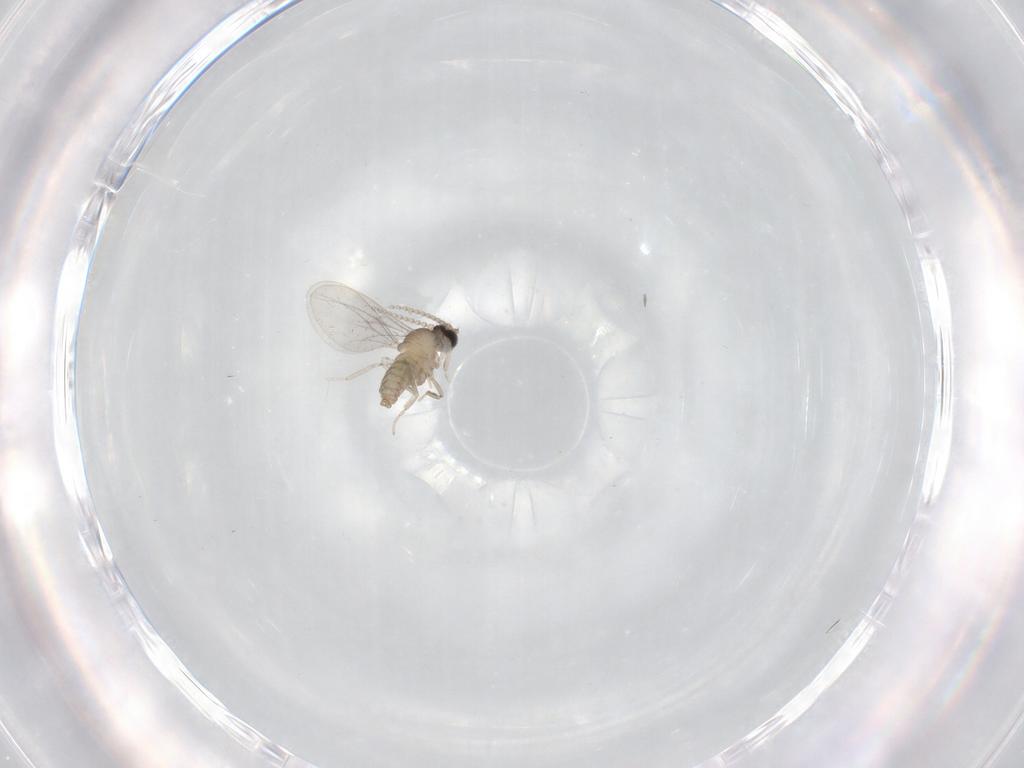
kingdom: Animalia
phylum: Arthropoda
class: Insecta
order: Diptera
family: Cecidomyiidae
